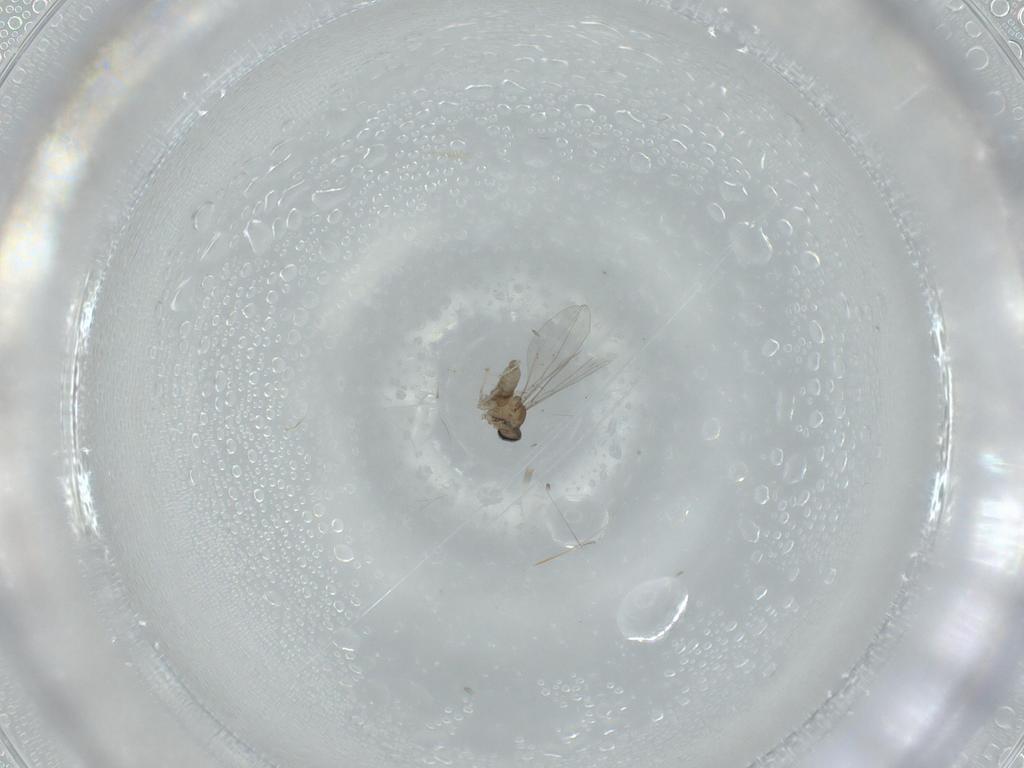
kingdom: Animalia
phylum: Arthropoda
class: Insecta
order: Diptera
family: Cecidomyiidae
